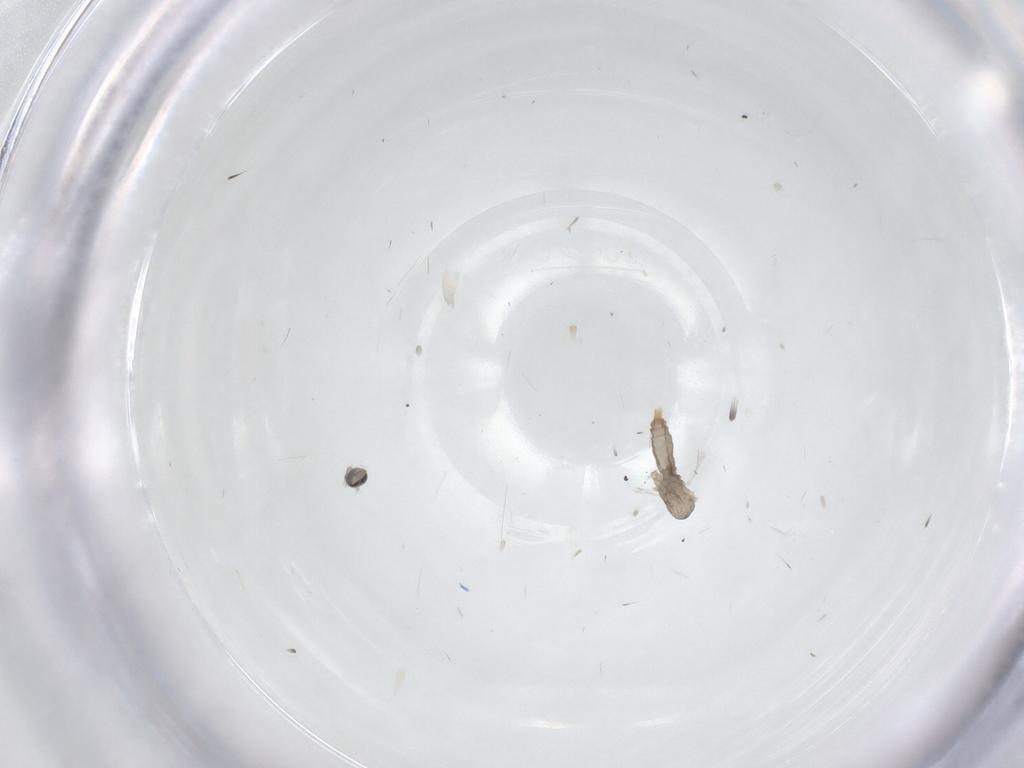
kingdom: Animalia
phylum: Arthropoda
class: Insecta
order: Diptera
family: Cecidomyiidae
